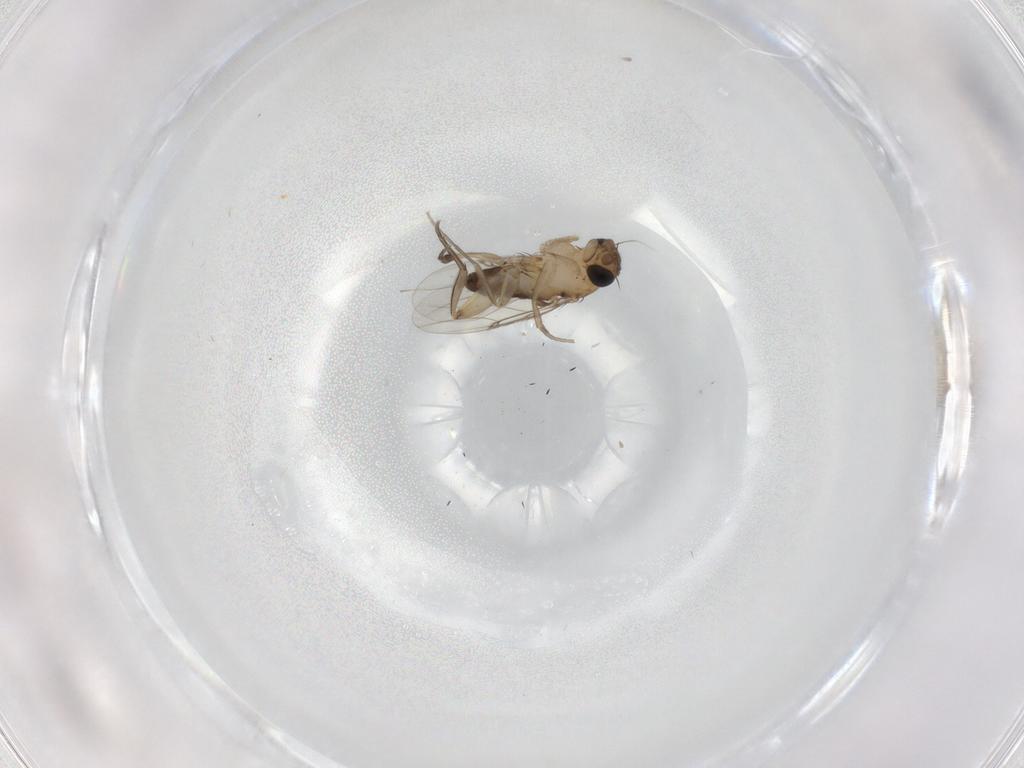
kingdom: Animalia
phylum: Arthropoda
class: Insecta
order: Diptera
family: Phoridae
